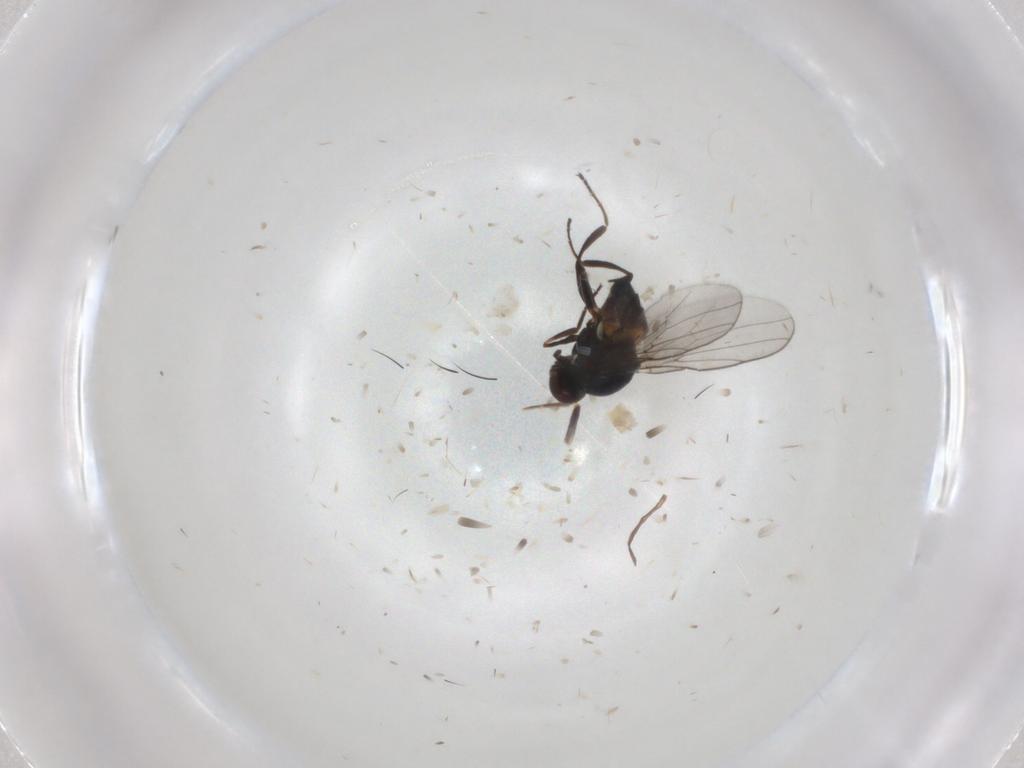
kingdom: Animalia
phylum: Arthropoda
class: Insecta
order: Diptera
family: Chloropidae
